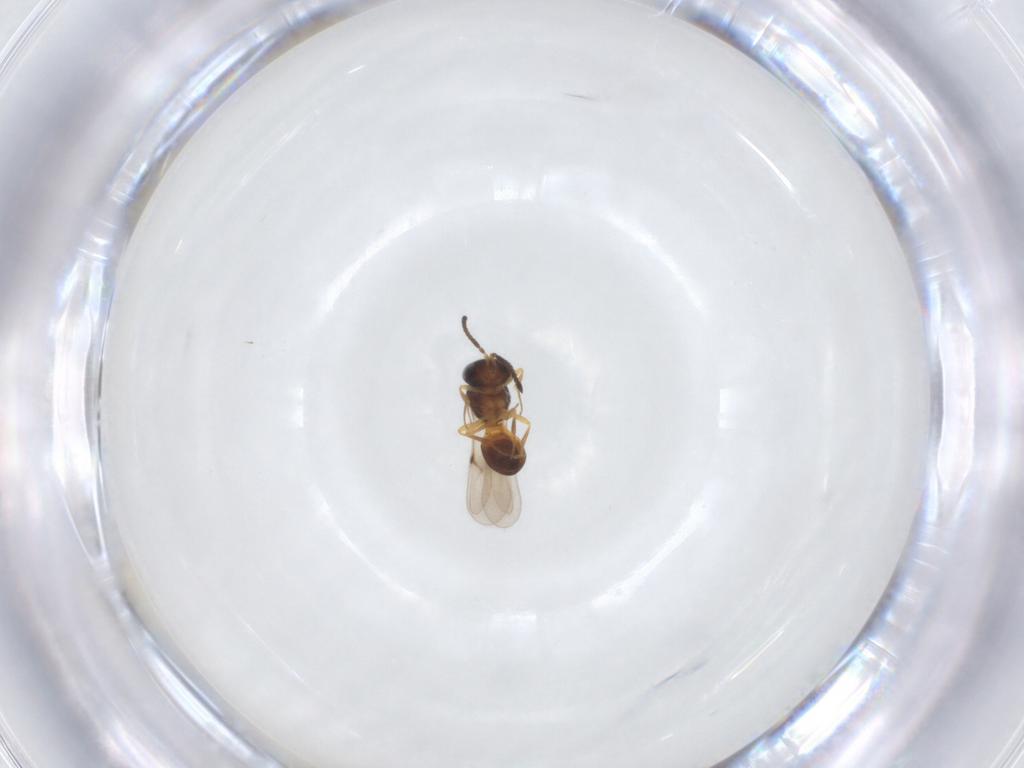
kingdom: Animalia
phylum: Arthropoda
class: Arachnida
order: Araneae
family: Pholcidae
